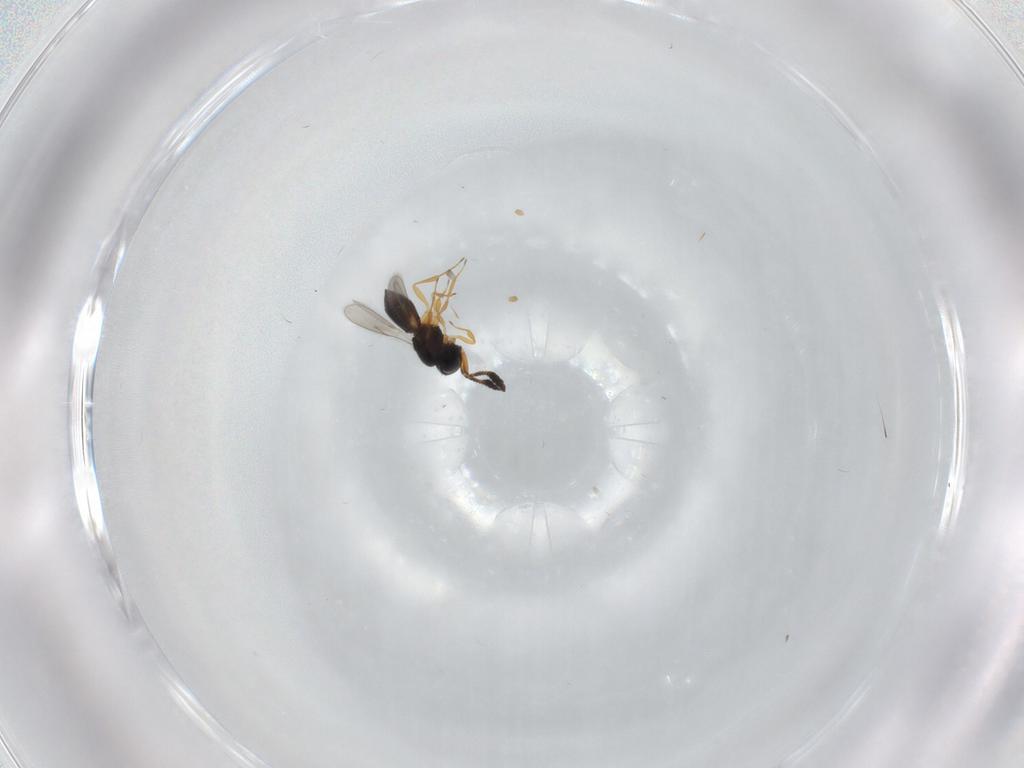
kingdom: Animalia
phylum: Arthropoda
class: Insecta
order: Hymenoptera
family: Scelionidae
